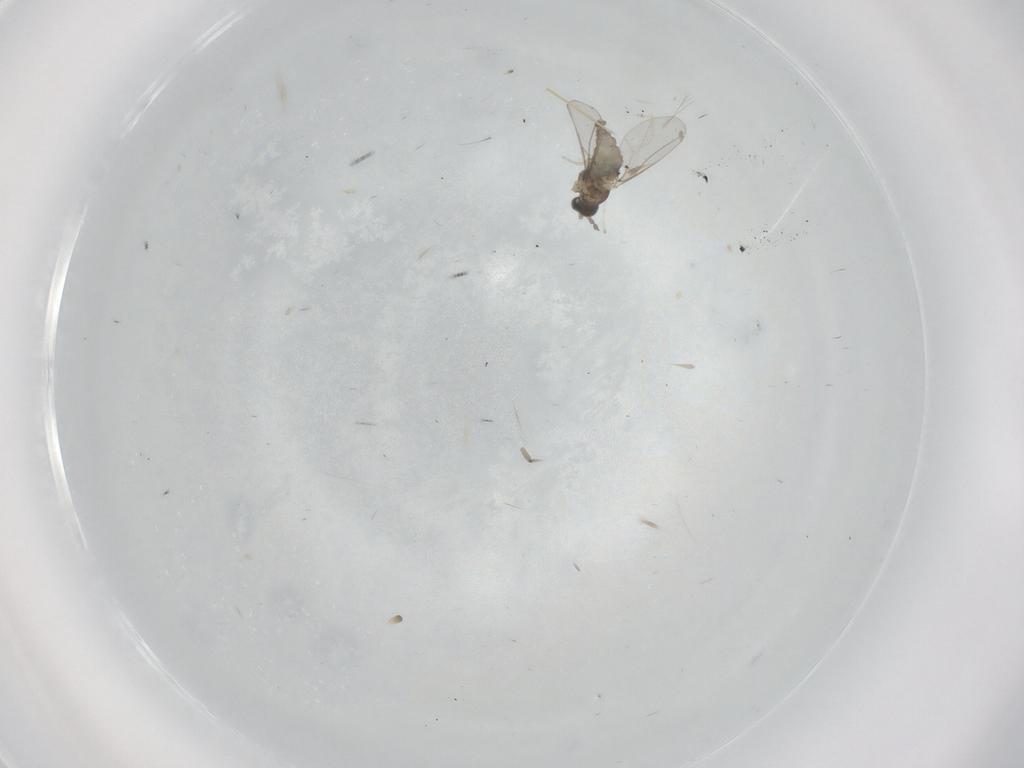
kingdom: Animalia
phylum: Arthropoda
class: Insecta
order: Diptera
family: Cecidomyiidae
